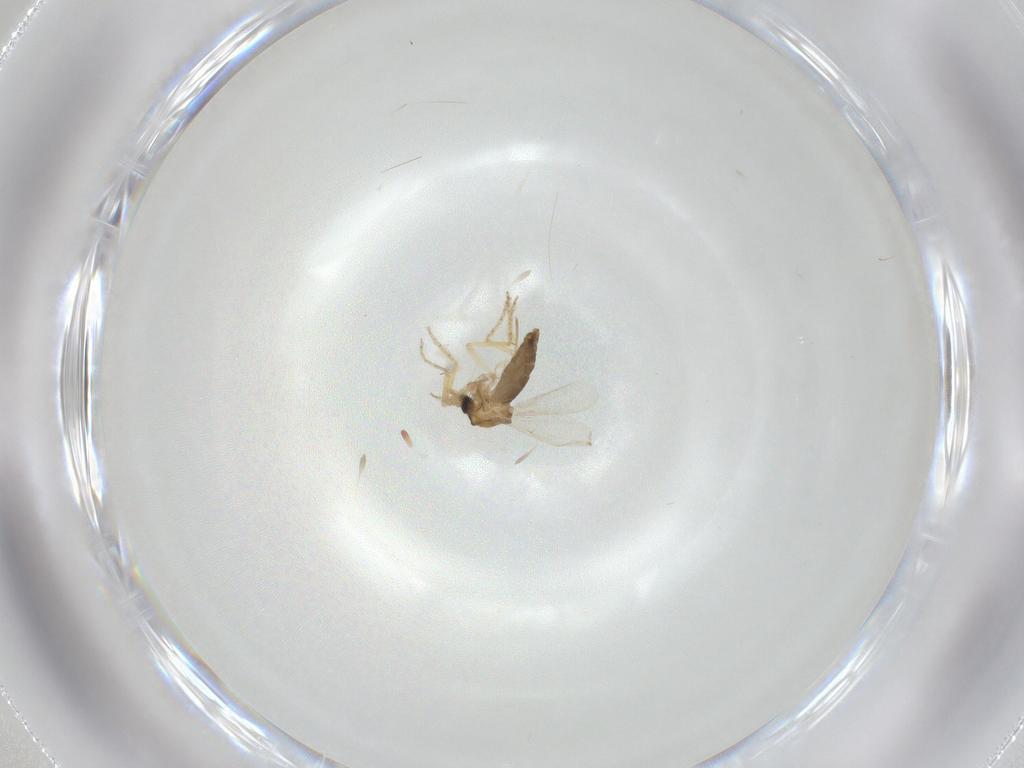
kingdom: Animalia
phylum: Arthropoda
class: Insecta
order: Diptera
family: Ceratopogonidae
